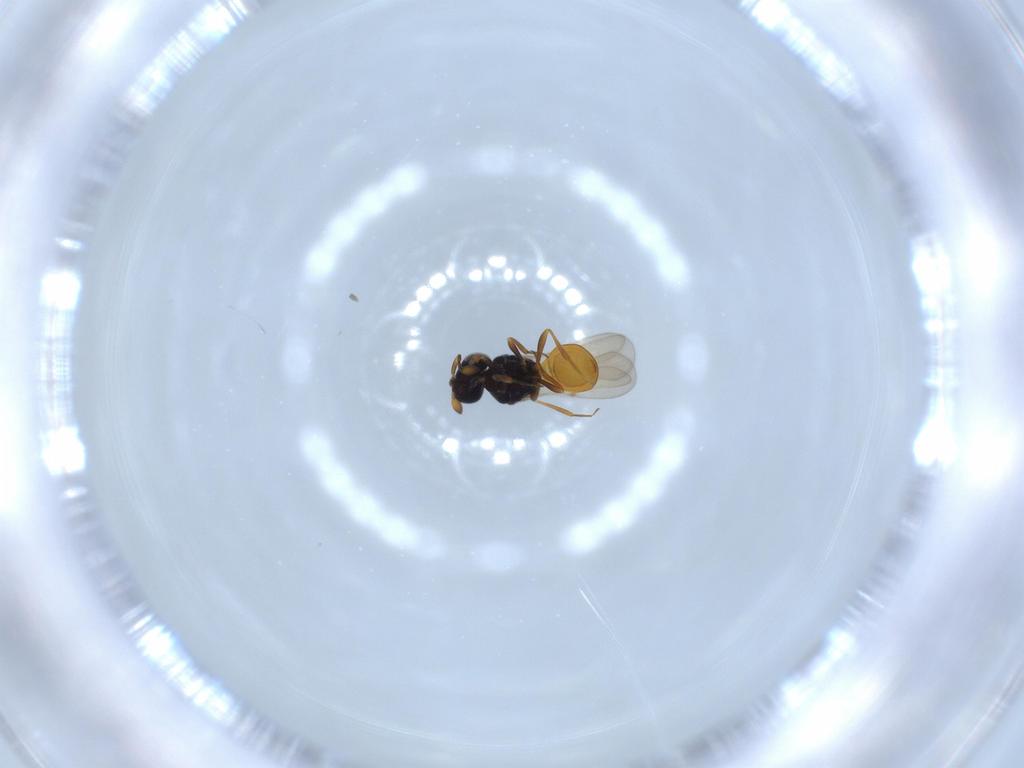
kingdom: Animalia
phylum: Arthropoda
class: Insecta
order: Hymenoptera
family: Scelionidae
